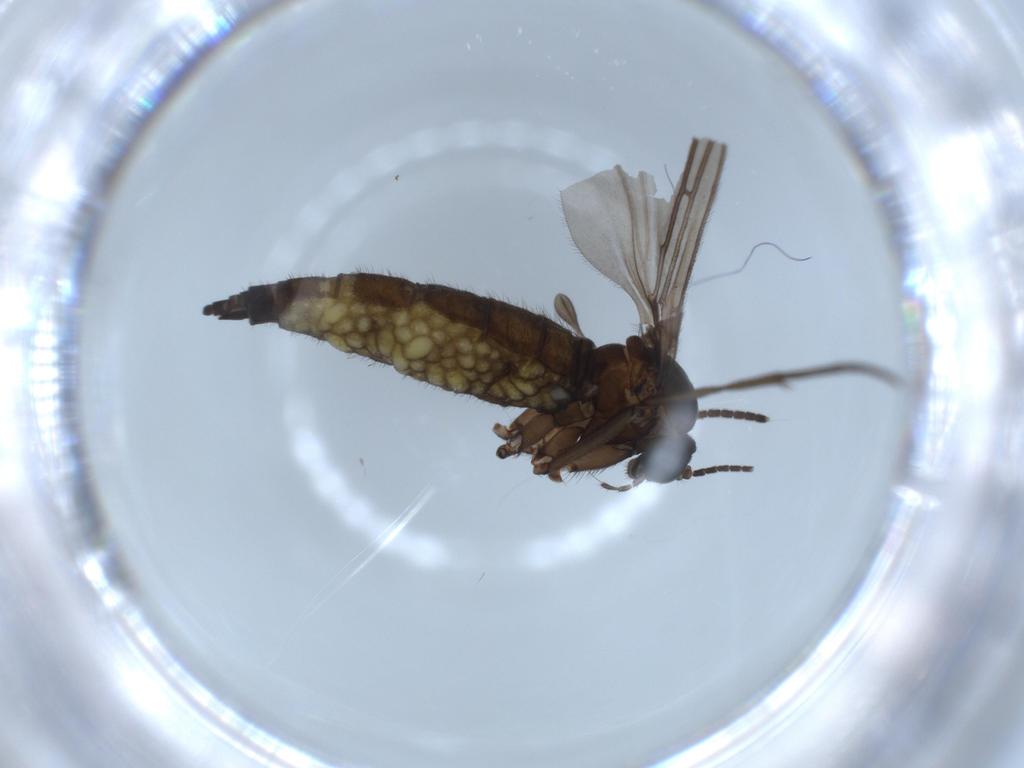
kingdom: Animalia
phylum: Arthropoda
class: Insecta
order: Diptera
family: Sciaridae
